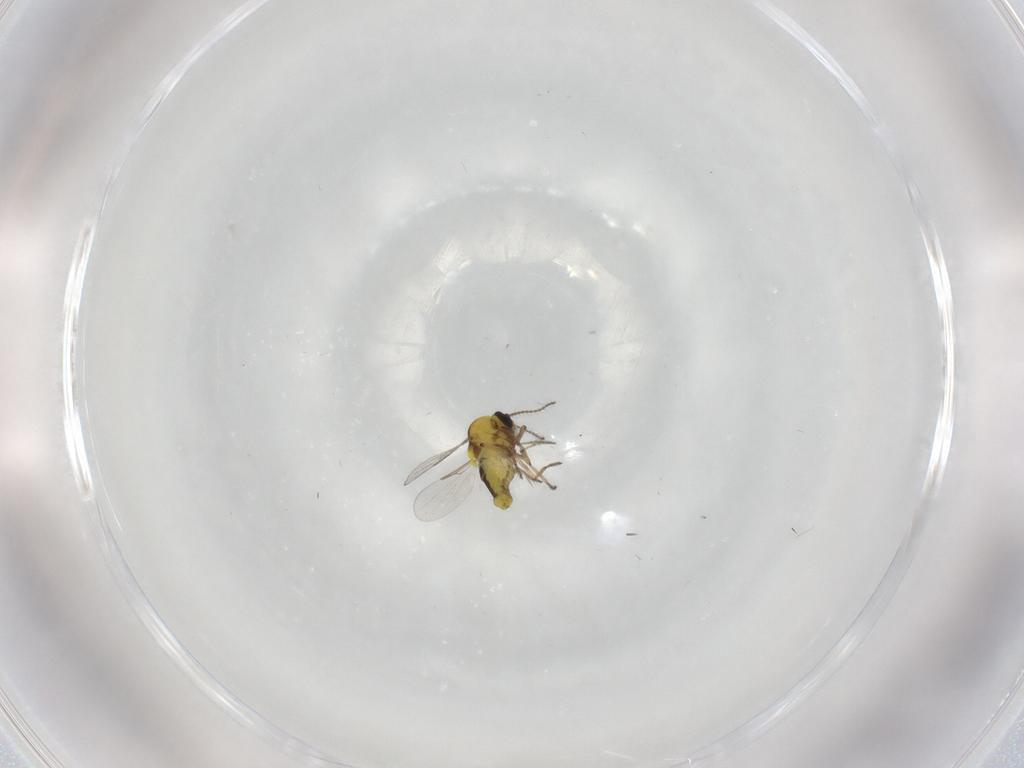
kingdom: Animalia
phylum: Arthropoda
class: Insecta
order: Diptera
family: Ceratopogonidae
